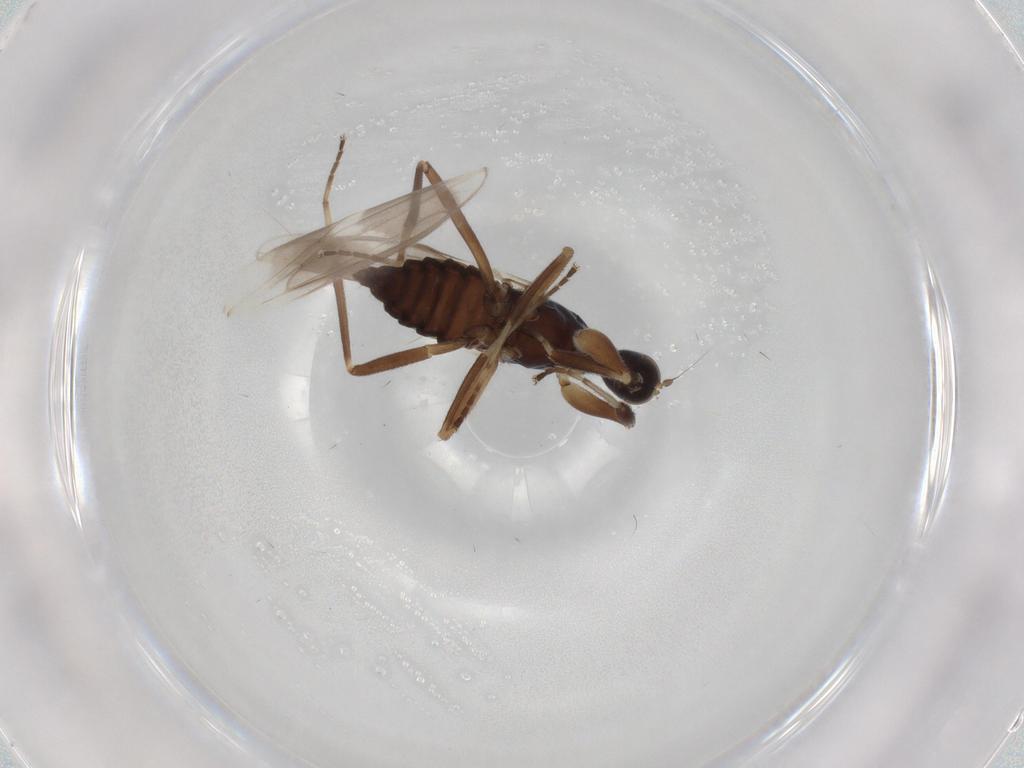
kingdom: Animalia
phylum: Arthropoda
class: Insecta
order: Diptera
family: Hybotidae
